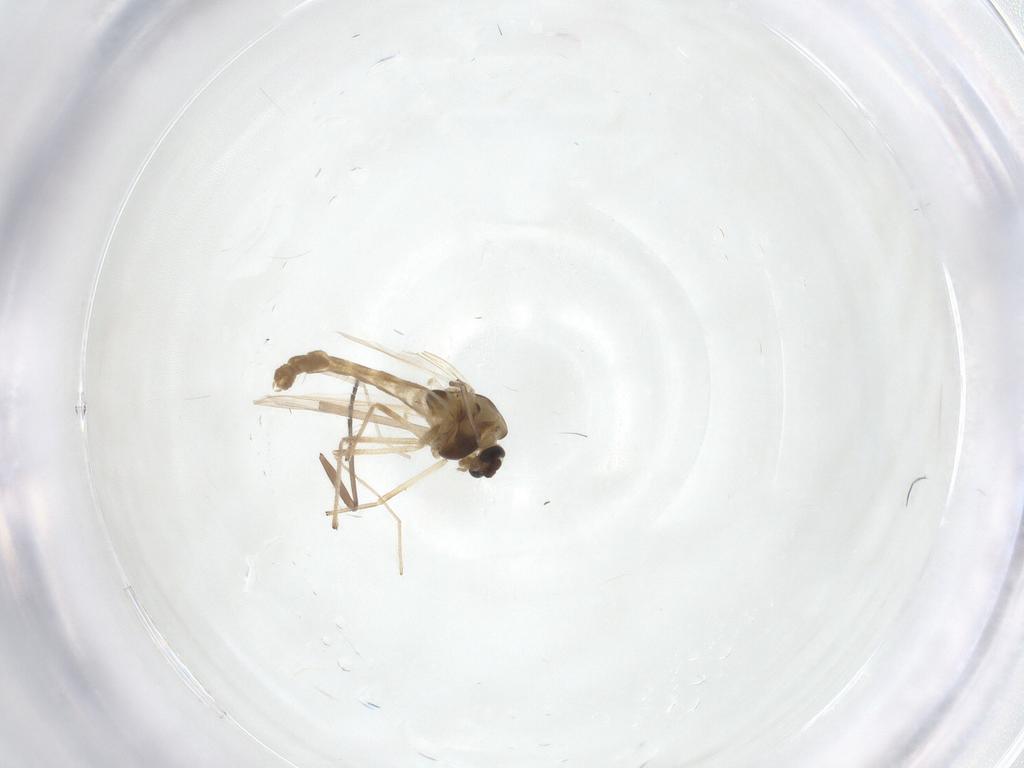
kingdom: Animalia
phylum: Arthropoda
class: Insecta
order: Diptera
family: Chironomidae
